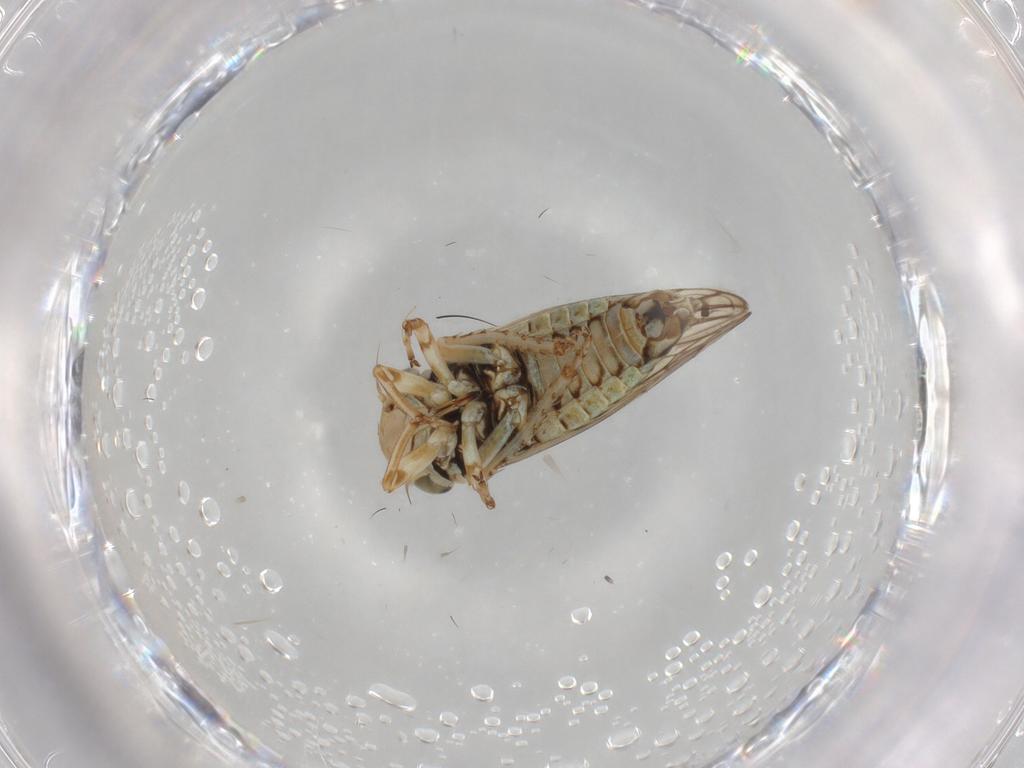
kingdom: Animalia
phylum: Arthropoda
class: Insecta
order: Hemiptera
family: Cicadellidae
